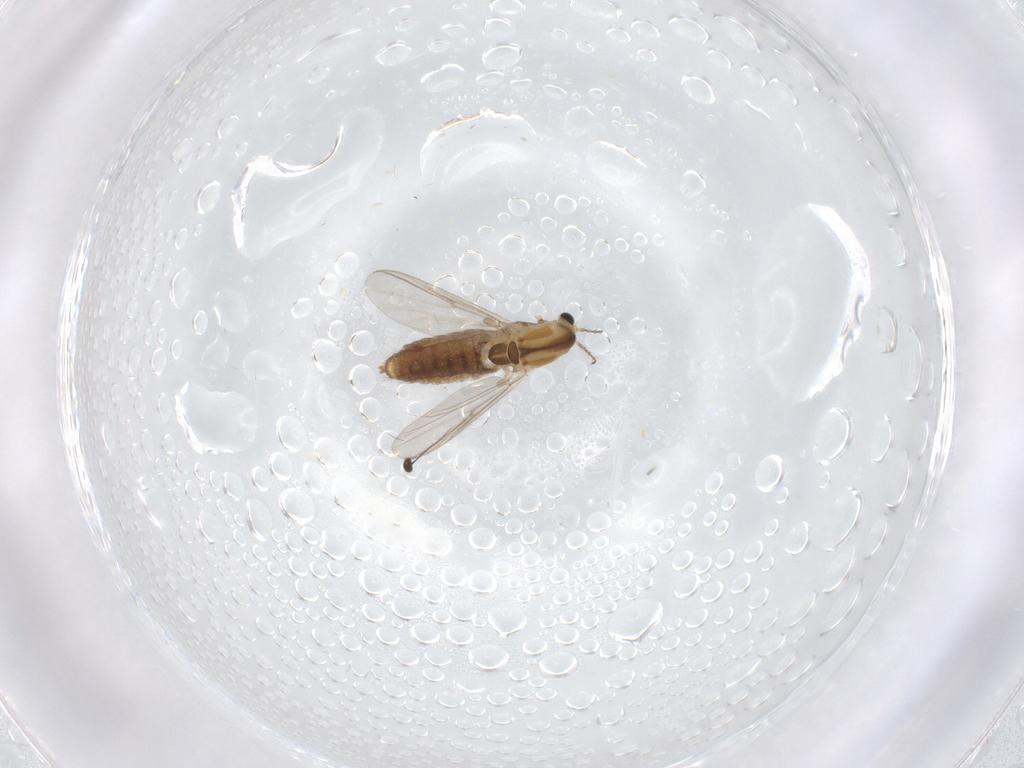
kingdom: Animalia
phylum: Arthropoda
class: Insecta
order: Diptera
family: Chironomidae
